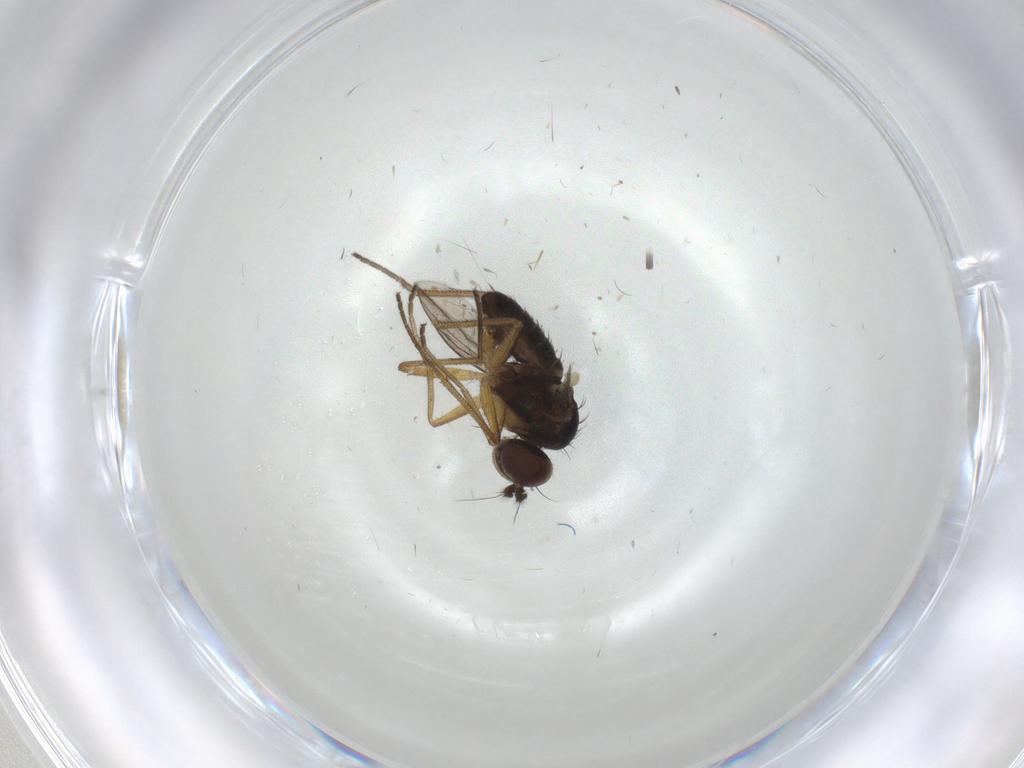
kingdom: Animalia
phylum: Arthropoda
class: Insecta
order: Diptera
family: Dolichopodidae
